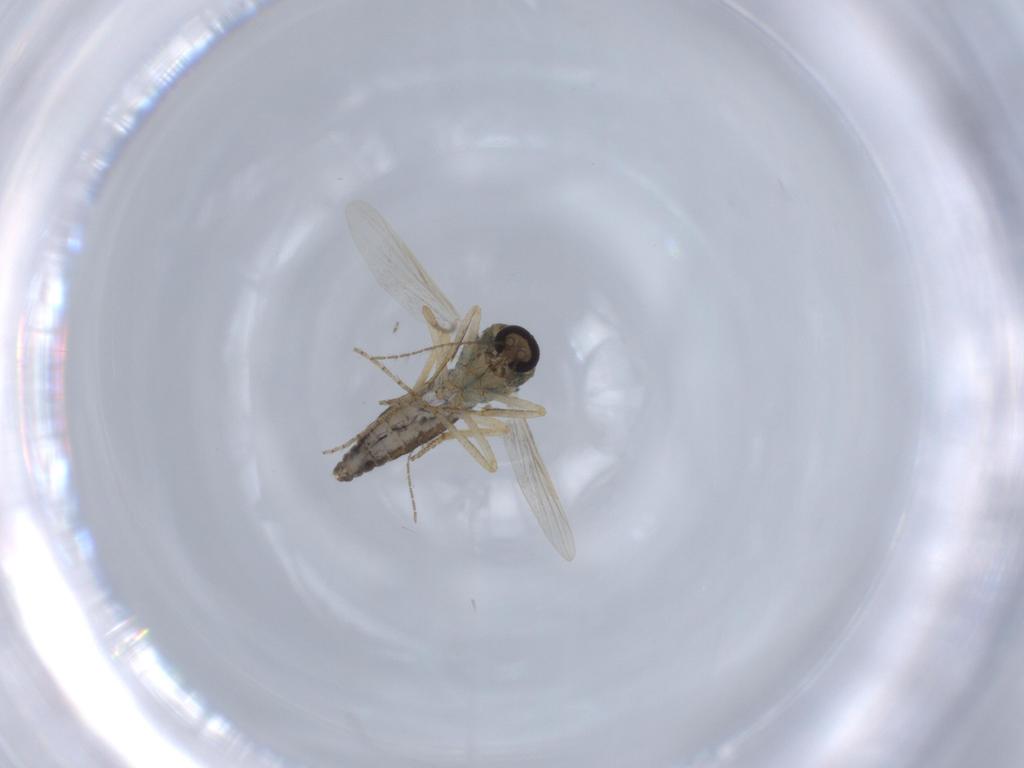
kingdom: Animalia
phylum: Arthropoda
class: Insecta
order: Diptera
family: Ceratopogonidae
